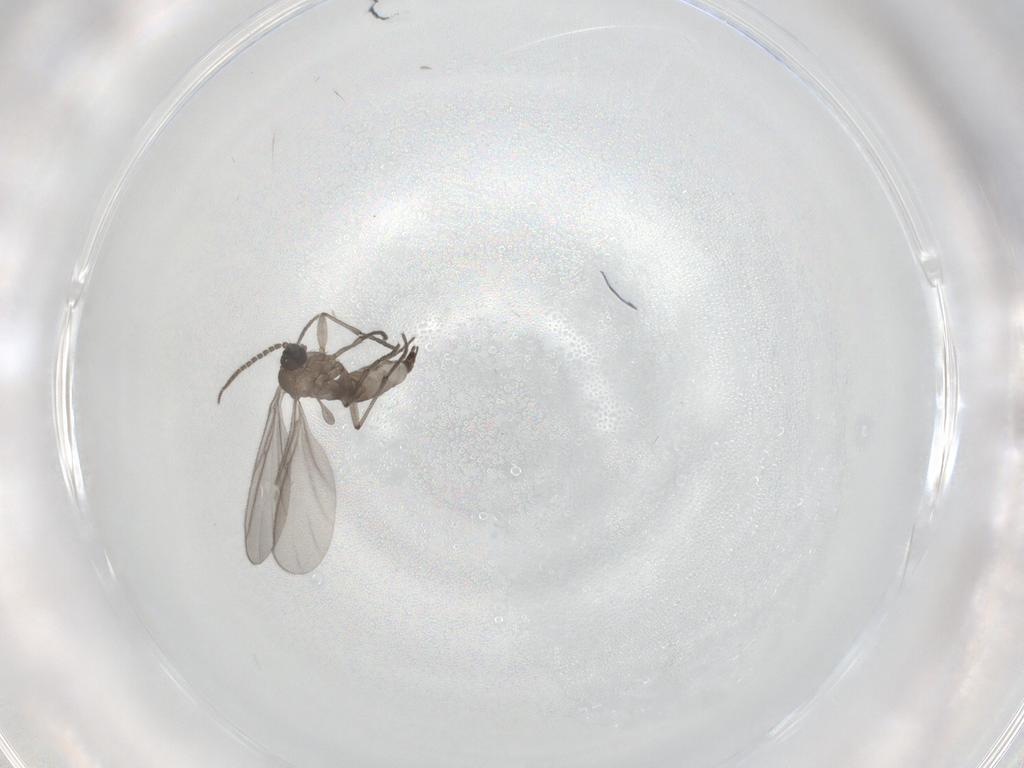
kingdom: Animalia
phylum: Arthropoda
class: Insecta
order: Diptera
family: Sciaridae
